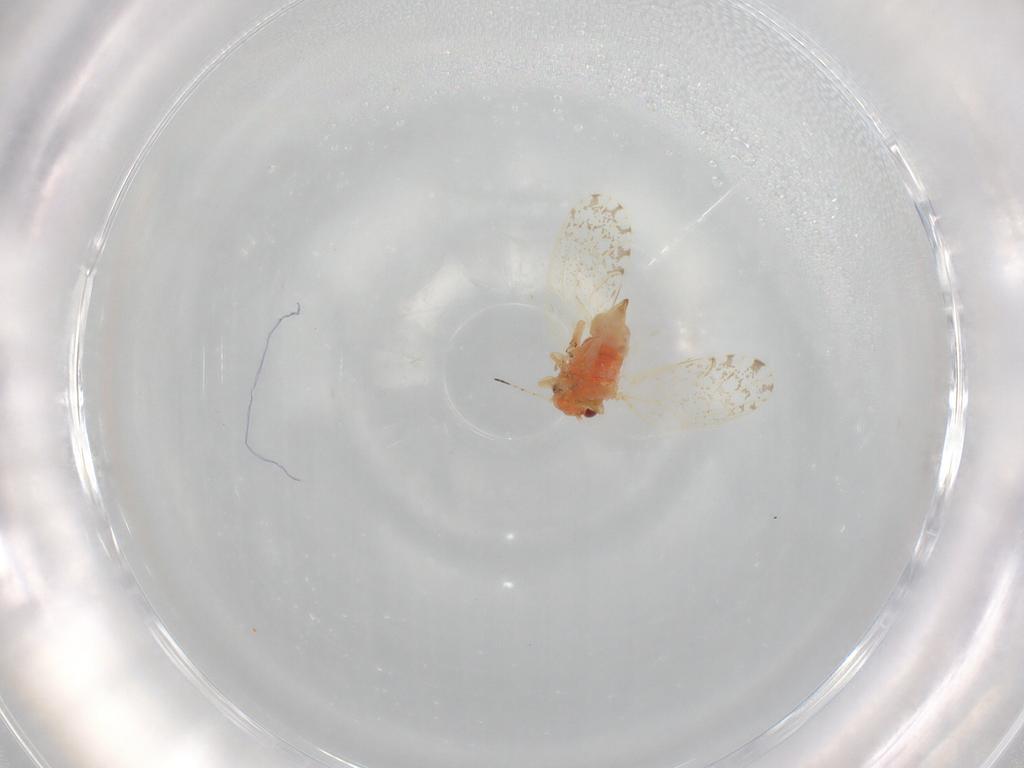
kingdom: Animalia
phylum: Arthropoda
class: Insecta
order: Hemiptera
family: Psyllidae
